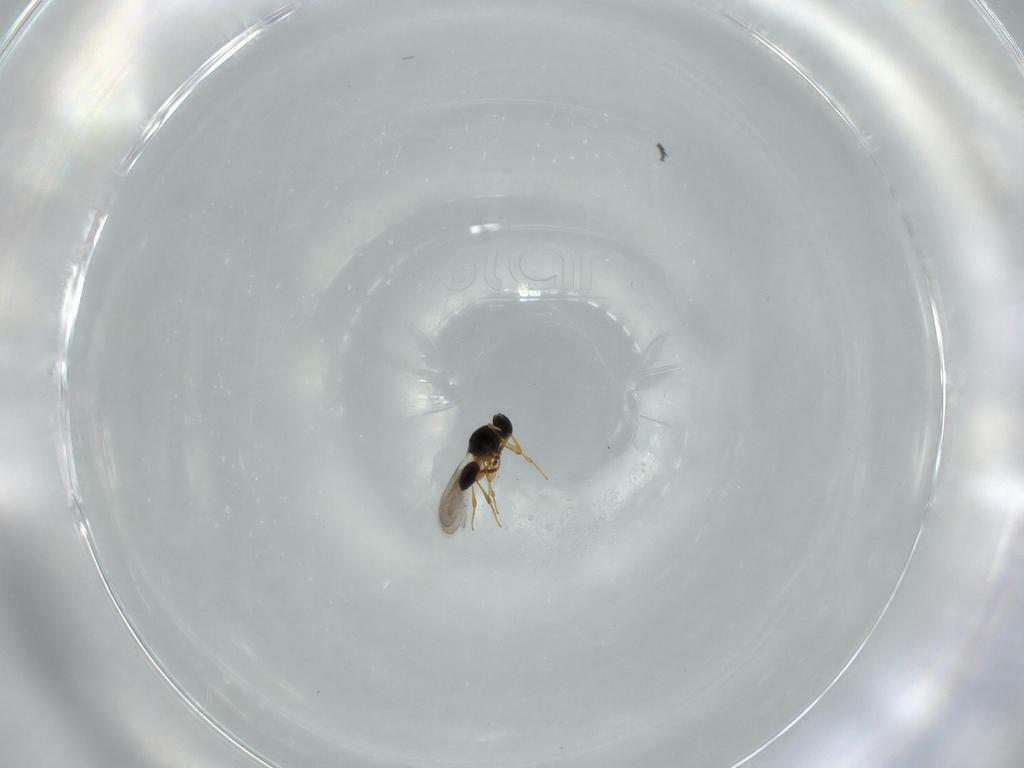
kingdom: Animalia
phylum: Arthropoda
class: Insecta
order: Hymenoptera
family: Platygastridae
